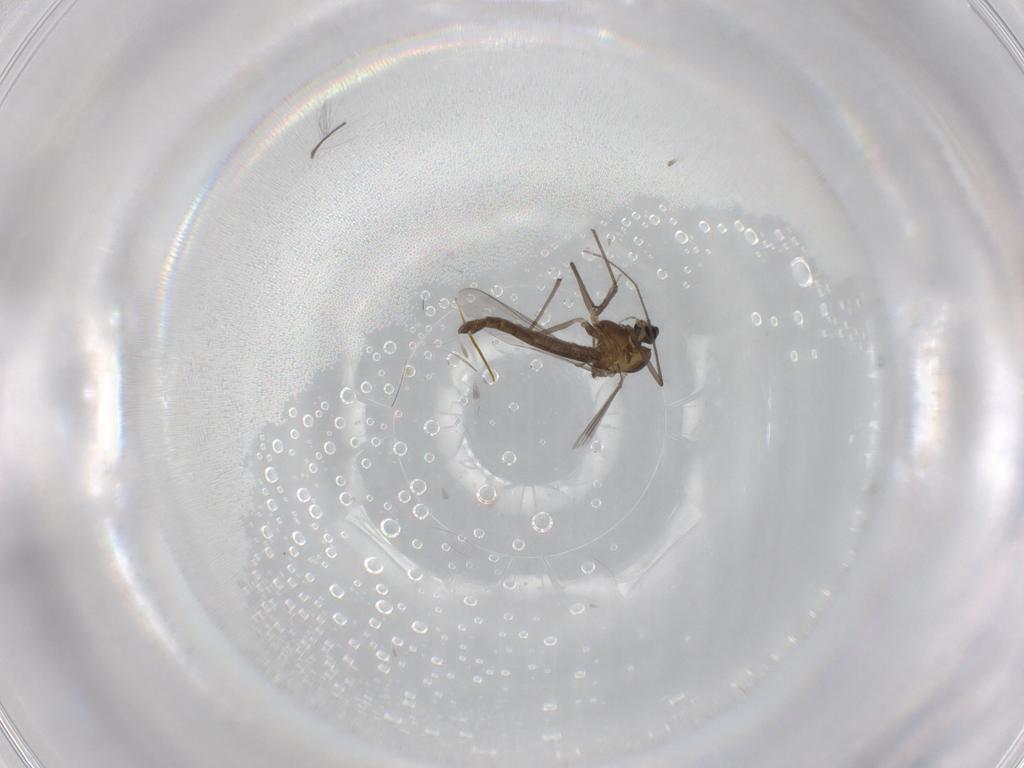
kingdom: Animalia
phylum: Arthropoda
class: Insecta
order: Diptera
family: Chironomidae
